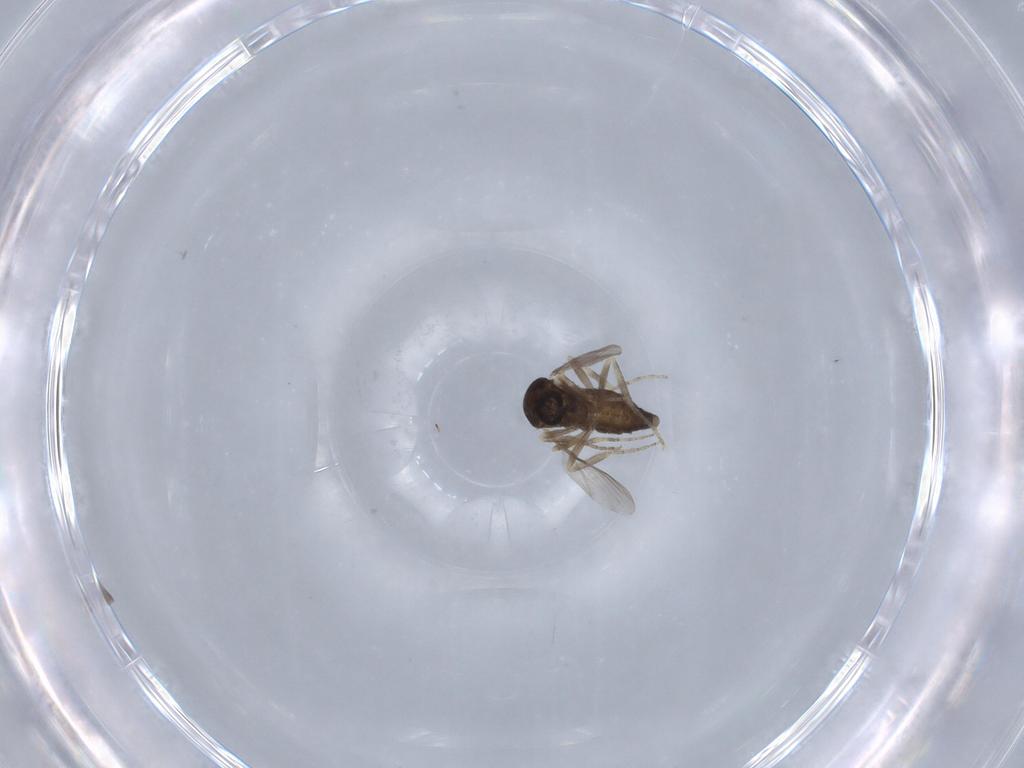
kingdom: Animalia
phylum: Arthropoda
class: Insecta
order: Diptera
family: Ceratopogonidae
